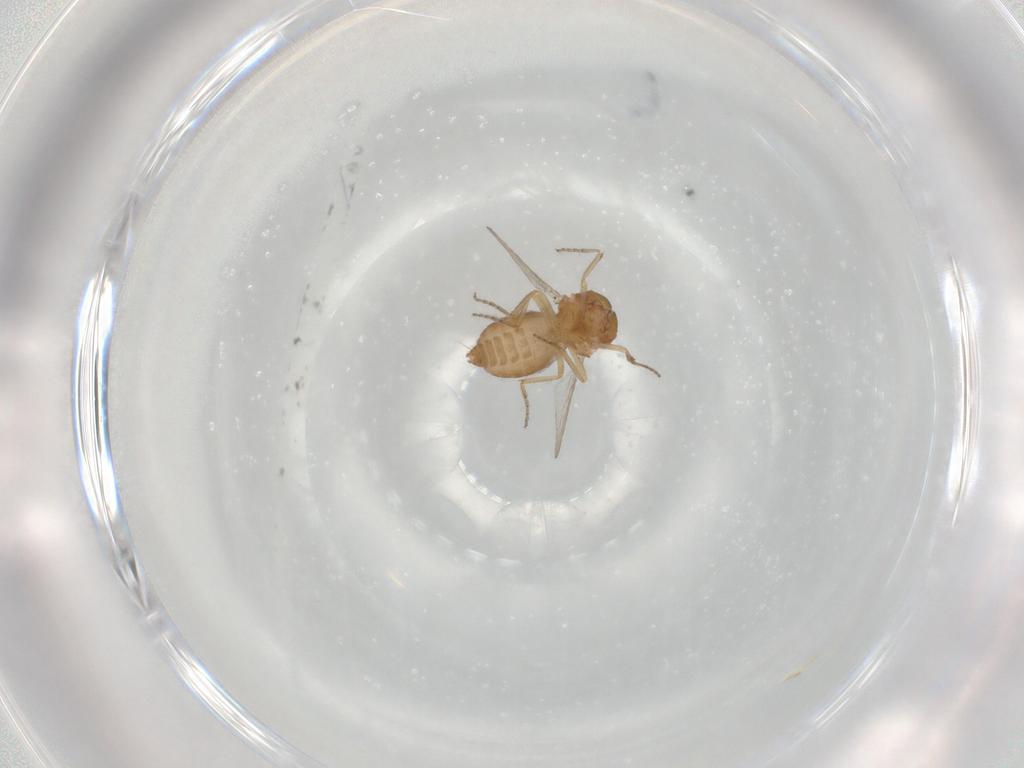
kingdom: Animalia
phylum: Arthropoda
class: Insecta
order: Diptera
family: Ceratopogonidae
